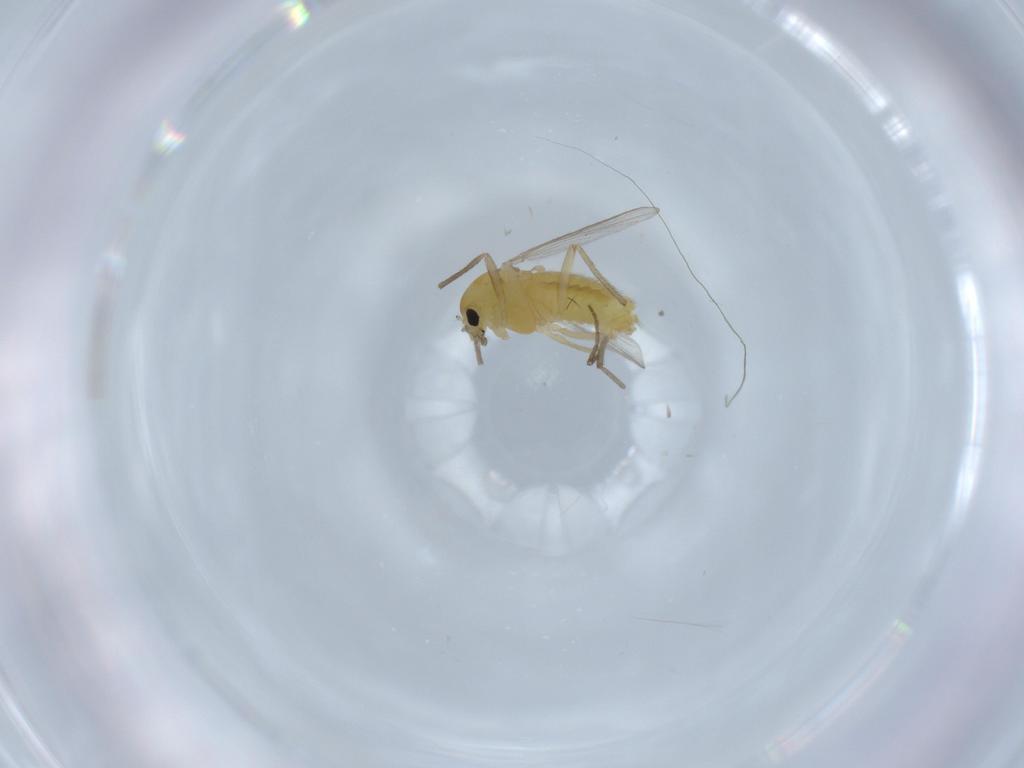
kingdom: Animalia
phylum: Arthropoda
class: Insecta
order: Diptera
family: Chironomidae
